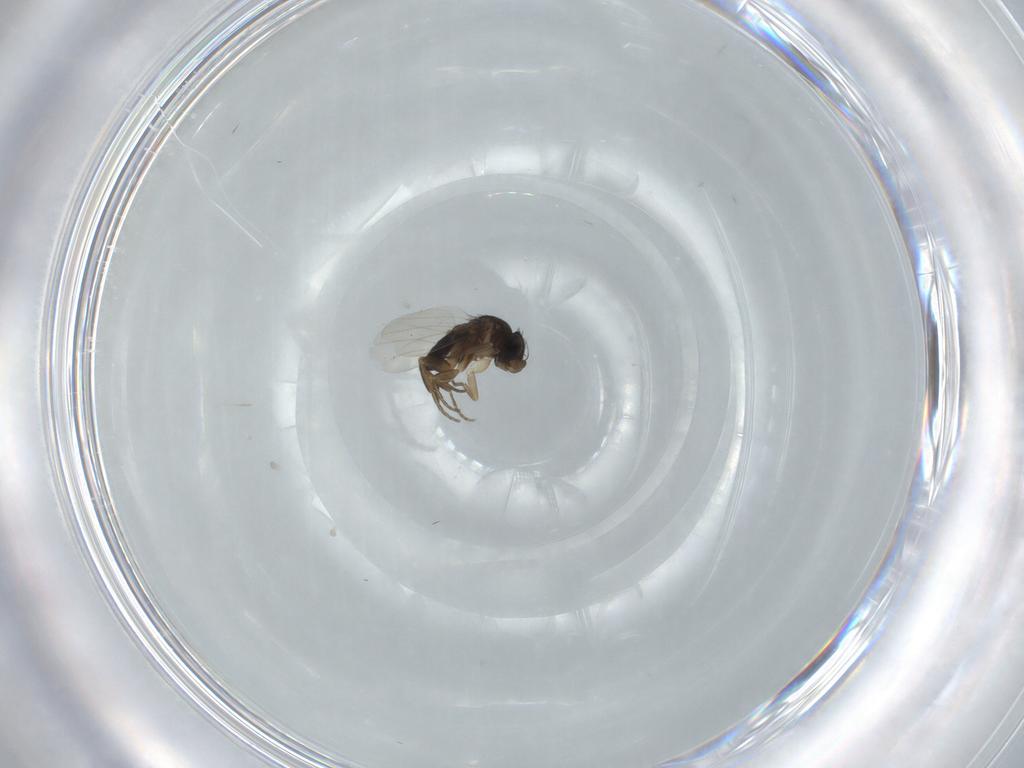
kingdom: Animalia
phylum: Arthropoda
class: Insecta
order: Diptera
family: Phoridae
